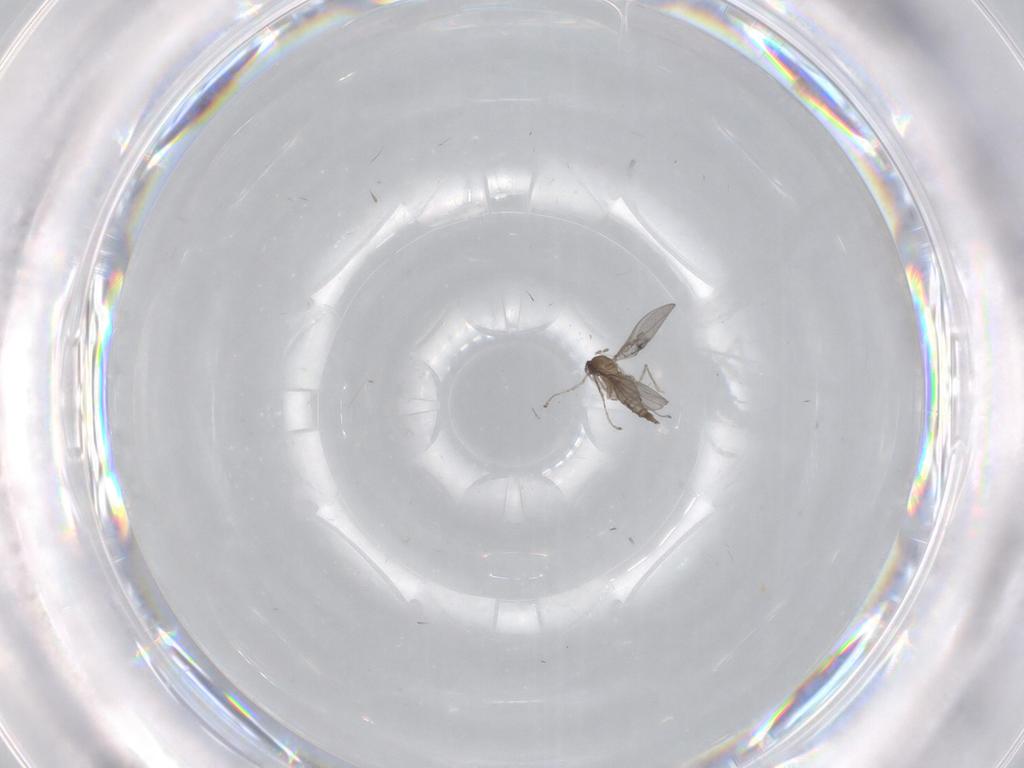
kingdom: Animalia
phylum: Arthropoda
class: Insecta
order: Diptera
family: Cecidomyiidae
